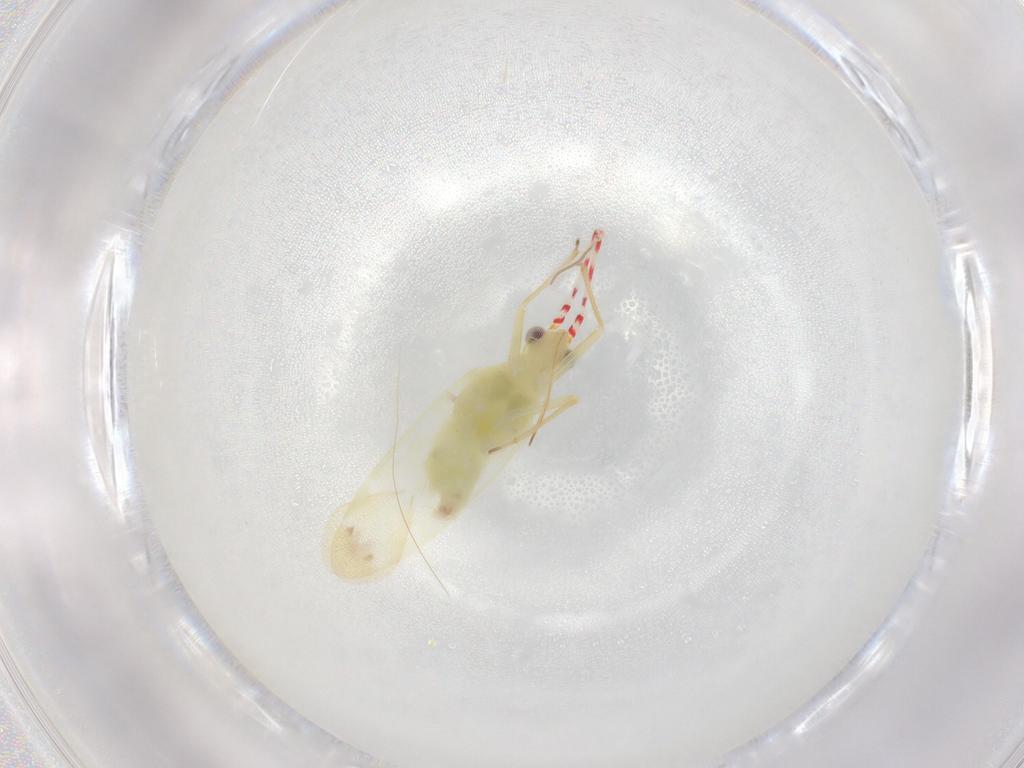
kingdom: Animalia
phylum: Arthropoda
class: Insecta
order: Hemiptera
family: Miridae
